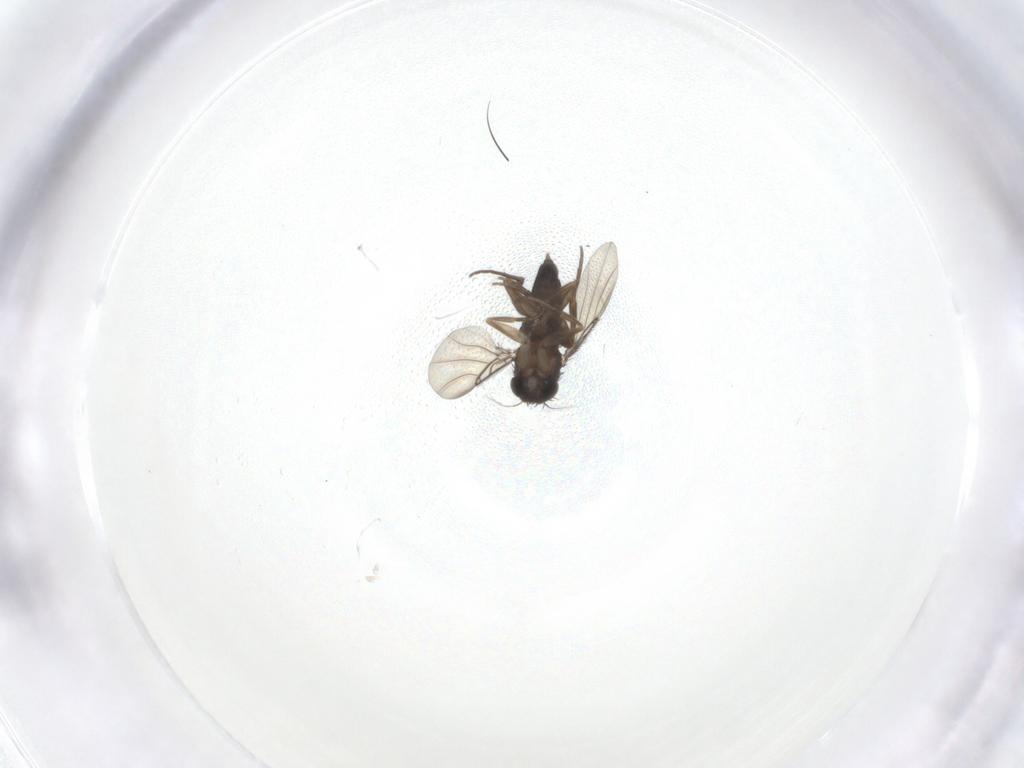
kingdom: Animalia
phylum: Arthropoda
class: Insecta
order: Diptera
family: Phoridae
